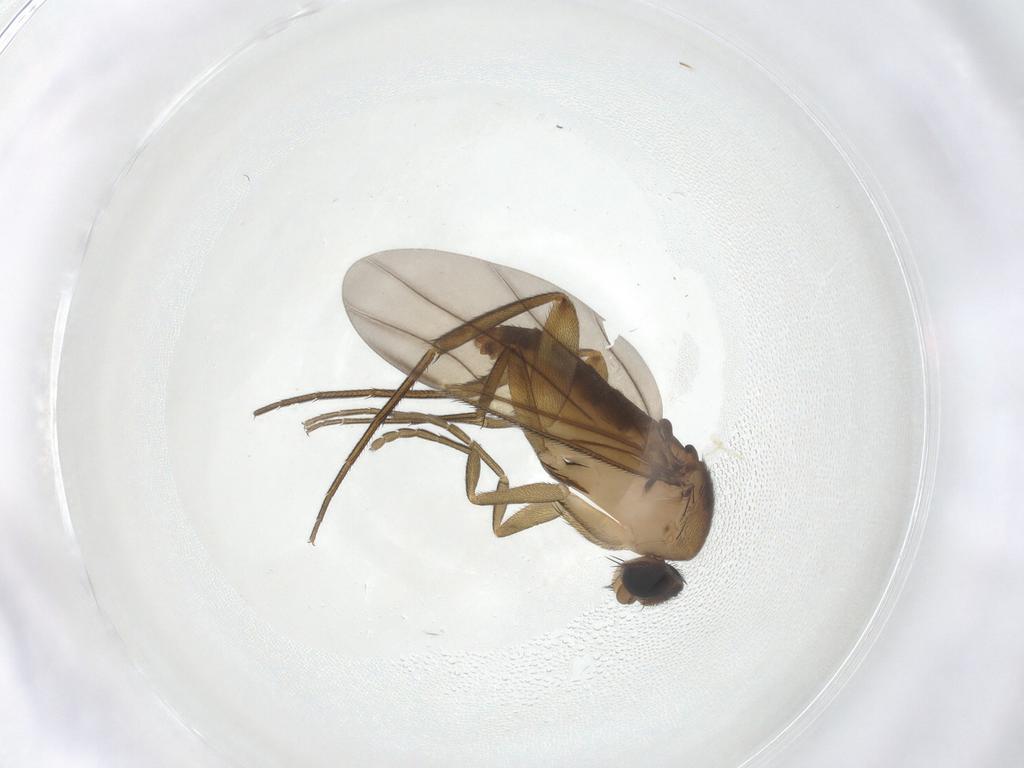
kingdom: Animalia
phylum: Arthropoda
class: Insecta
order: Diptera
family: Phoridae
